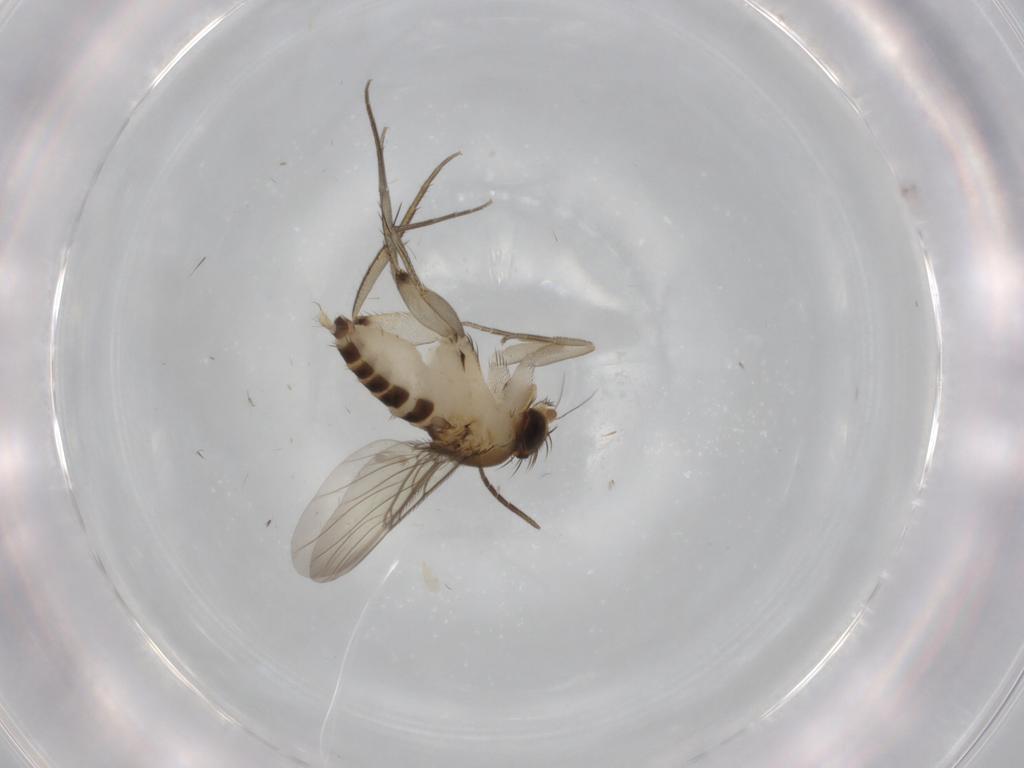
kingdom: Animalia
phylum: Arthropoda
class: Insecta
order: Diptera
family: Phoridae
